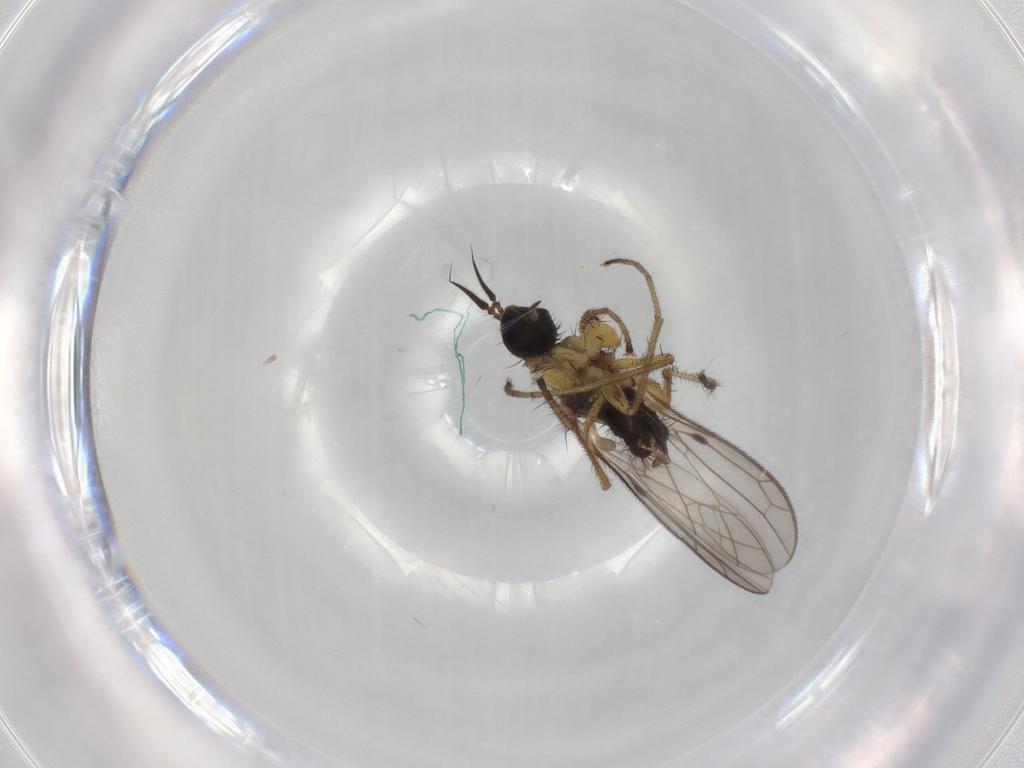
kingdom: Animalia
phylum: Arthropoda
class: Insecta
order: Diptera
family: Chironomidae
